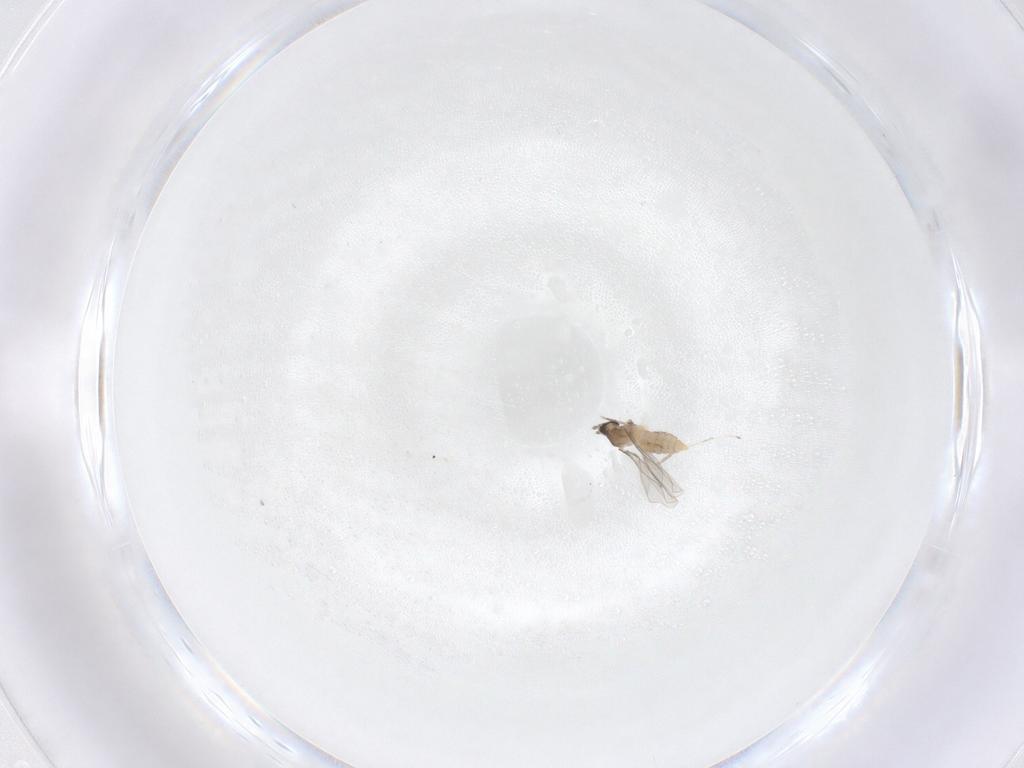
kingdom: Animalia
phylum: Arthropoda
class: Insecta
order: Diptera
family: Cecidomyiidae
